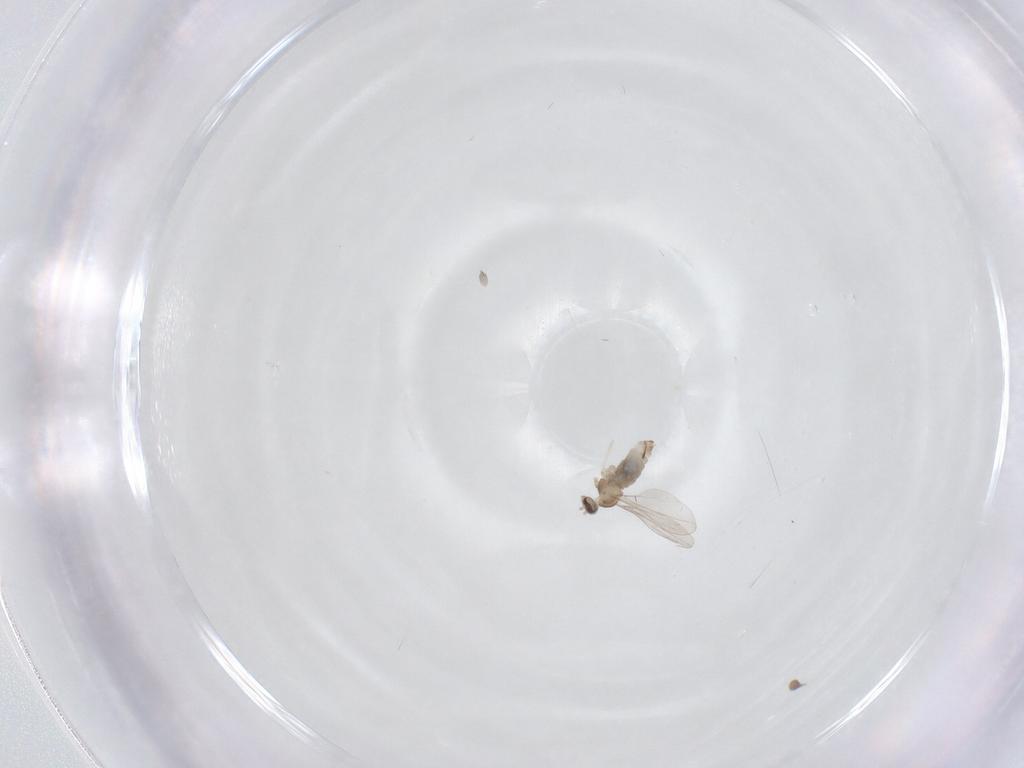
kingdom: Animalia
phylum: Arthropoda
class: Insecta
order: Diptera
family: Cecidomyiidae
